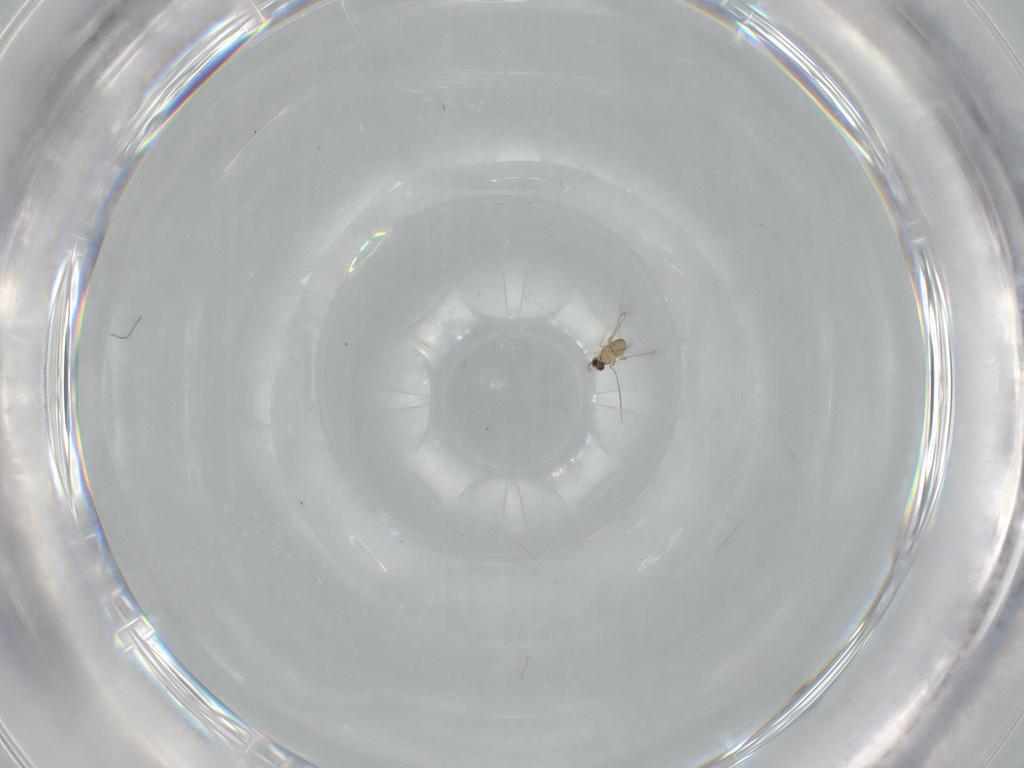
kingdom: Animalia
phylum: Arthropoda
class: Insecta
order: Diptera
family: Cecidomyiidae
